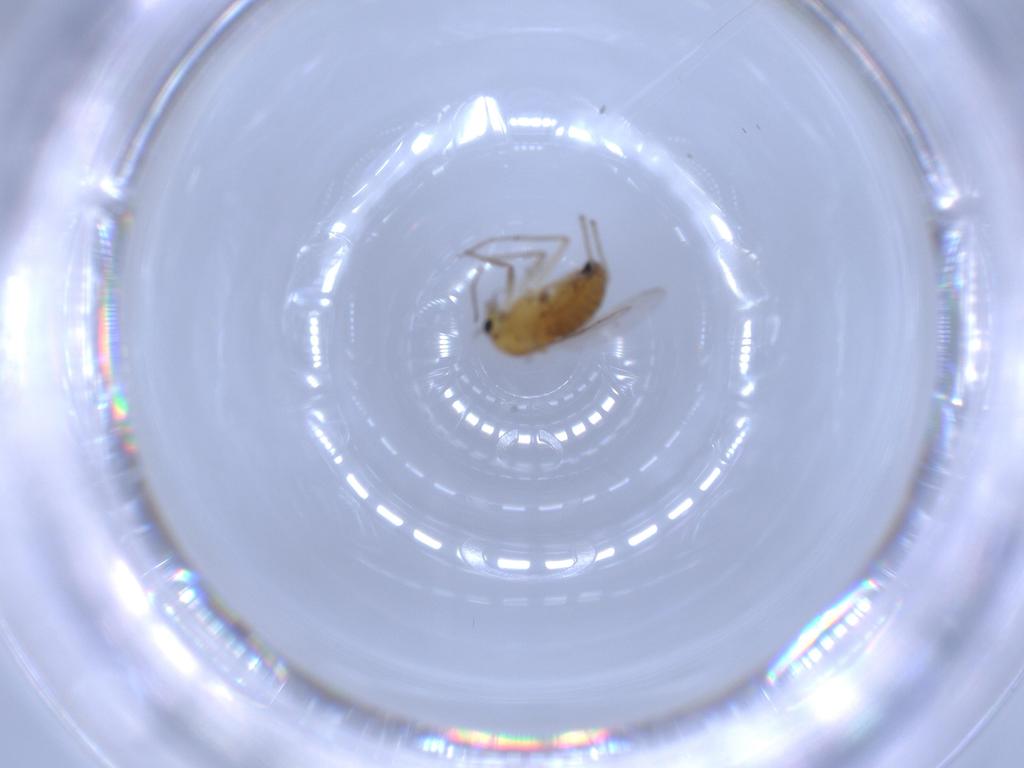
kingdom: Animalia
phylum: Arthropoda
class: Insecta
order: Diptera
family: Chironomidae
